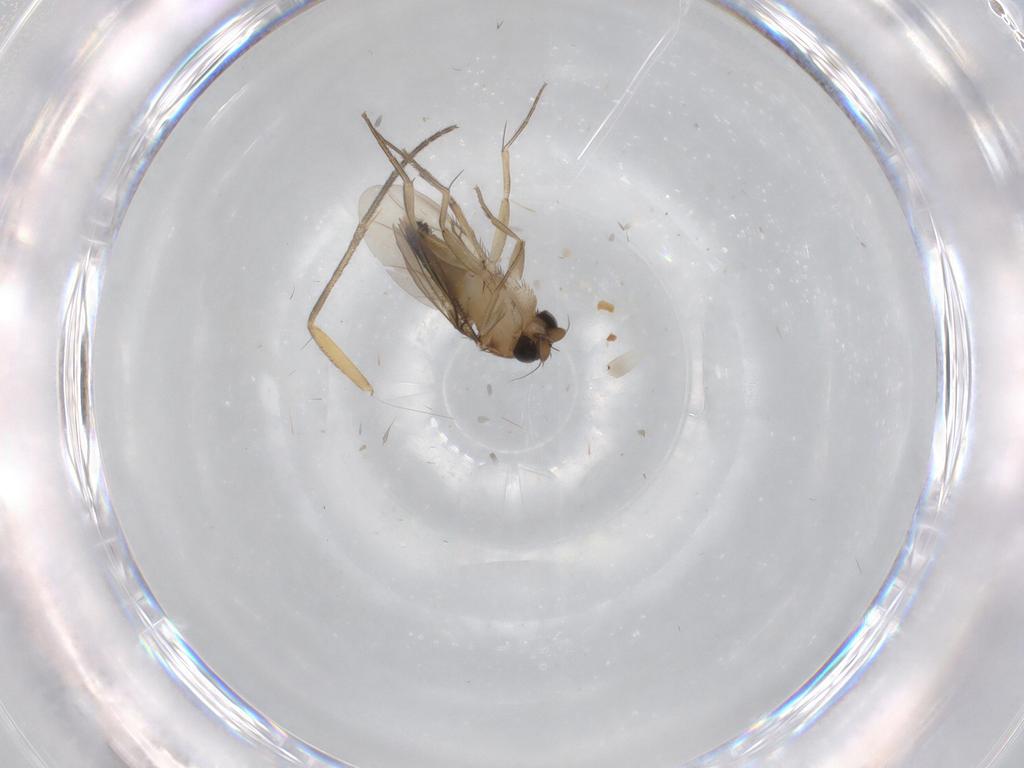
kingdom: Animalia
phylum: Arthropoda
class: Insecta
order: Diptera
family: Phoridae
